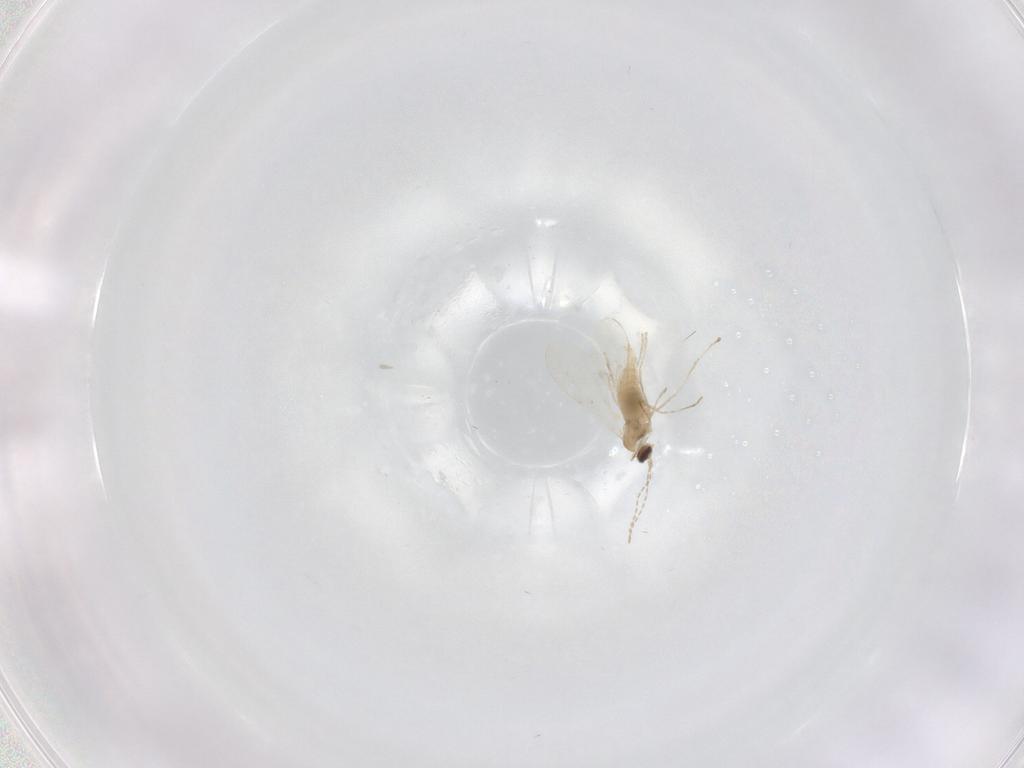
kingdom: Animalia
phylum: Arthropoda
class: Insecta
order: Diptera
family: Cecidomyiidae
